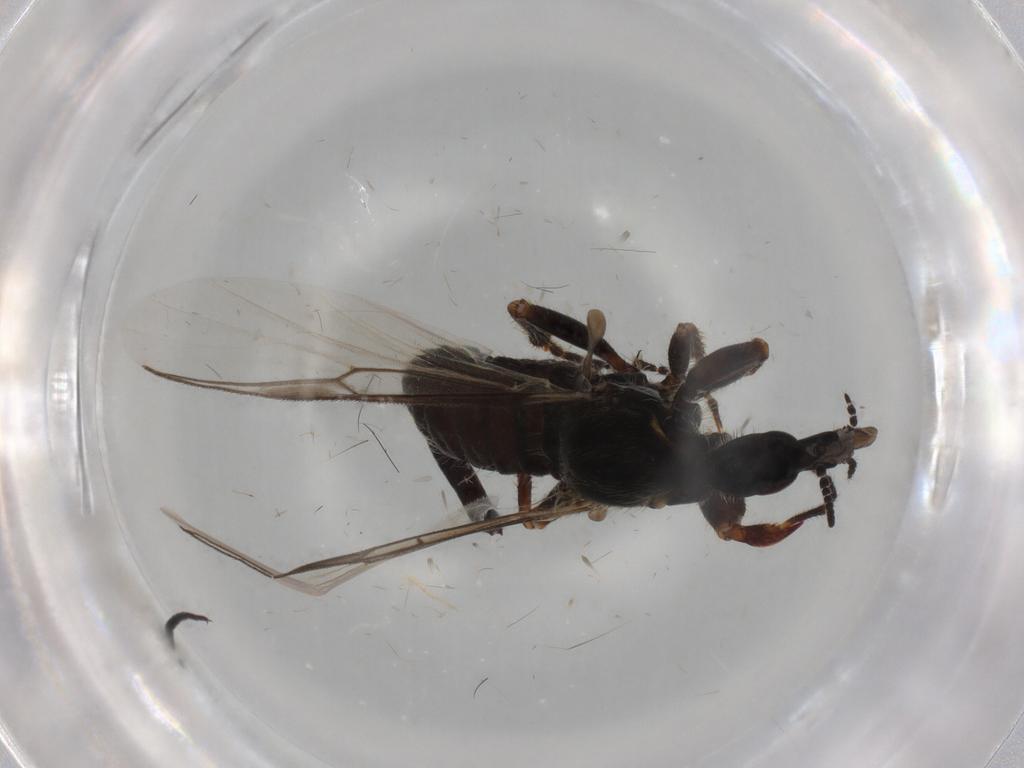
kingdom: Animalia
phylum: Arthropoda
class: Insecta
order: Diptera
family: Bibionidae
